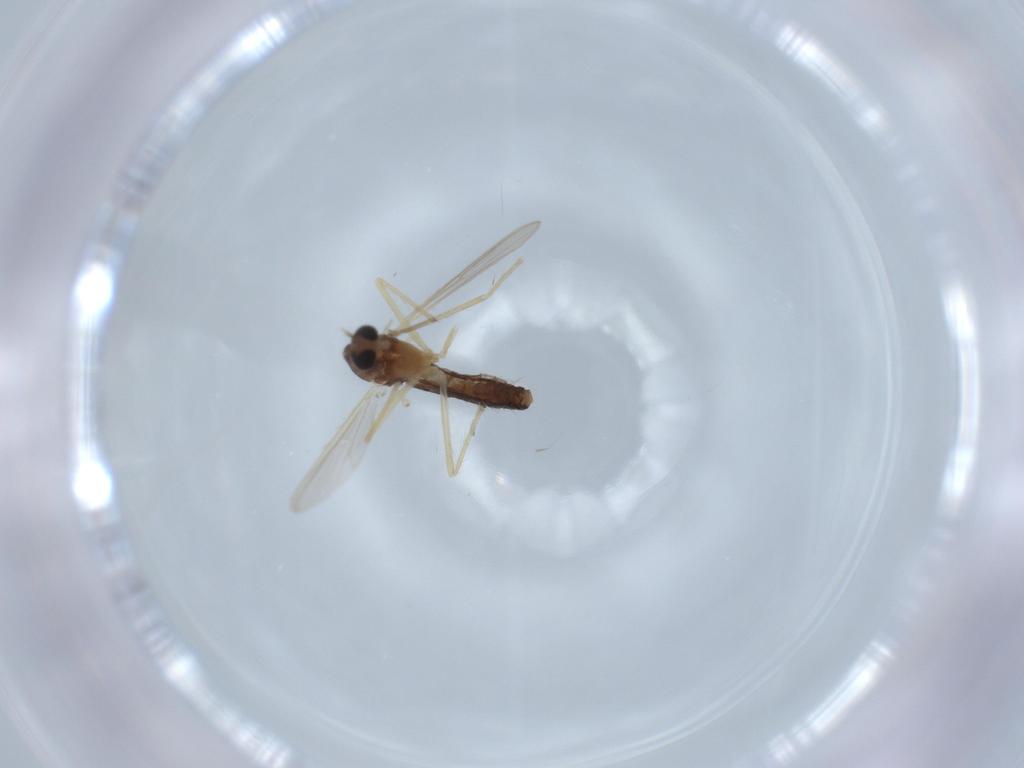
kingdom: Animalia
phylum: Arthropoda
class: Insecta
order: Diptera
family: Chironomidae
